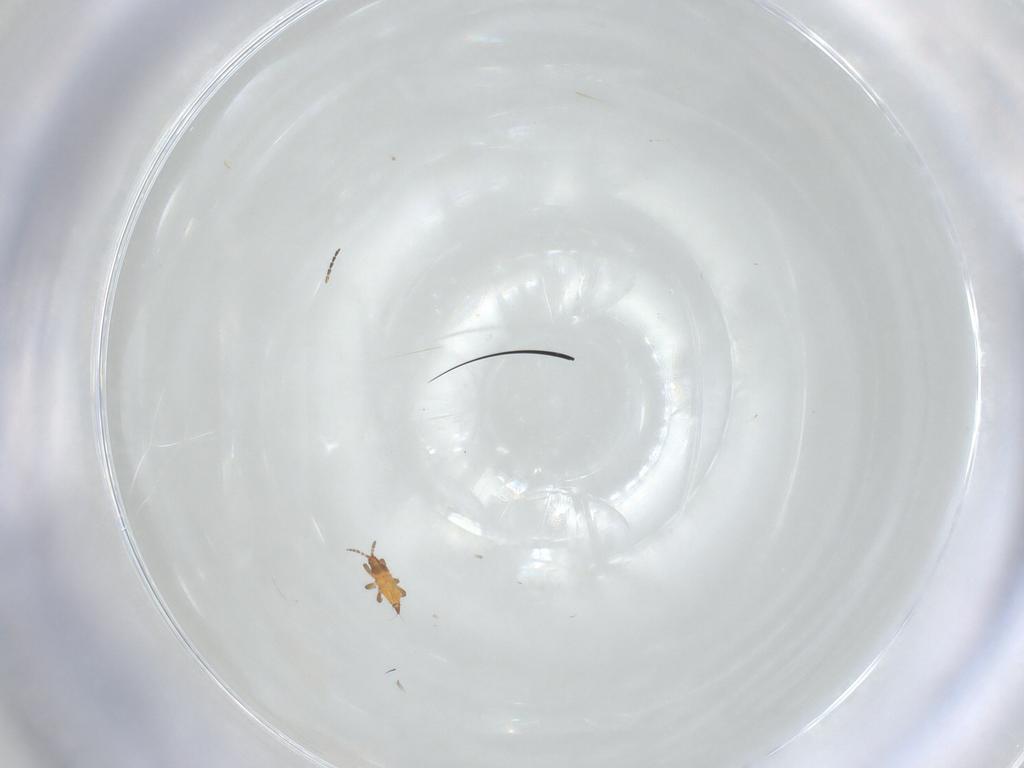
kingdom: Animalia
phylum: Arthropoda
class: Insecta
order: Thysanoptera
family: Phlaeothripidae
